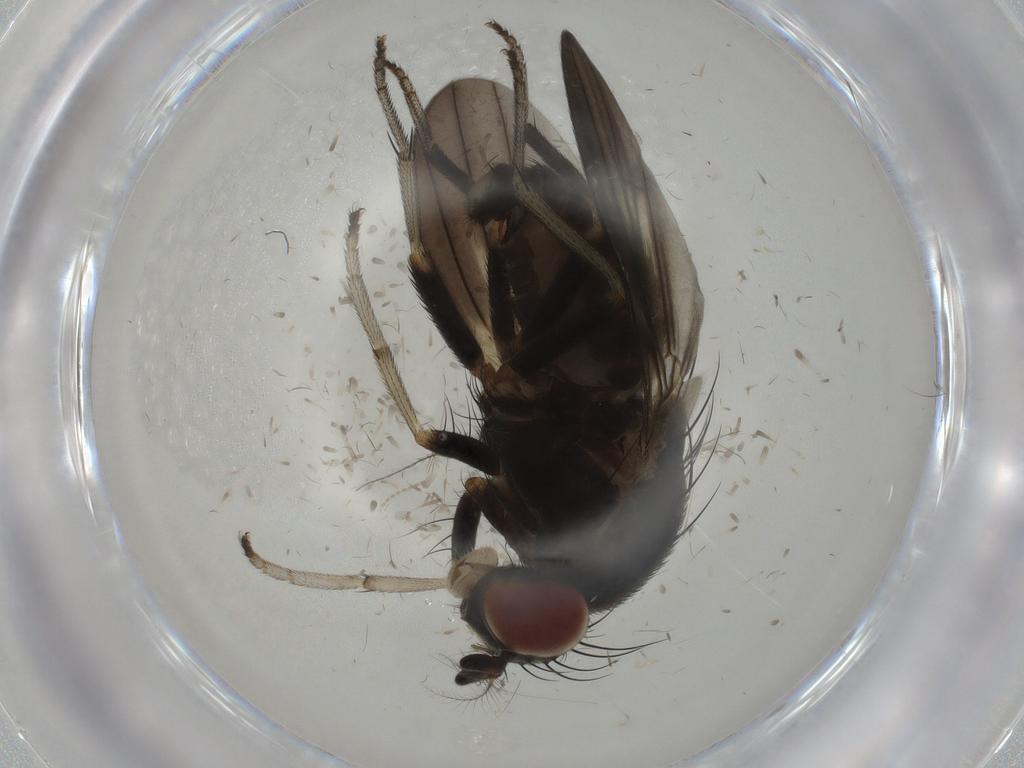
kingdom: Animalia
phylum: Arthropoda
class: Insecta
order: Diptera
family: Cecidomyiidae
